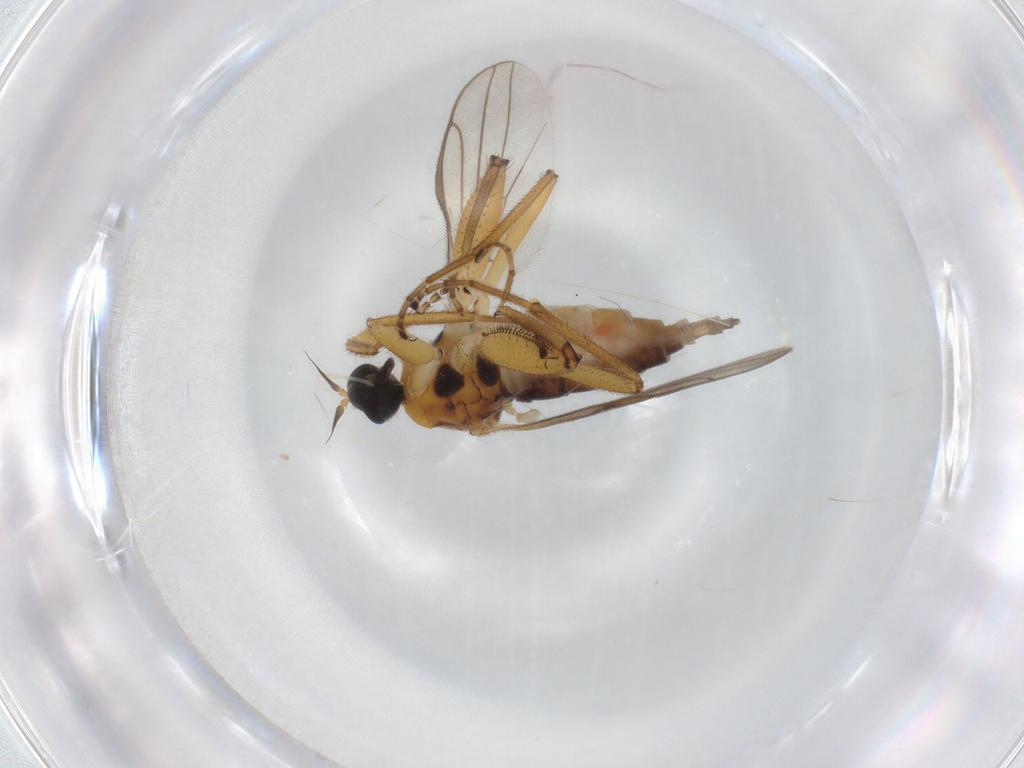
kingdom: Animalia
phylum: Arthropoda
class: Insecta
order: Diptera
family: Hybotidae
